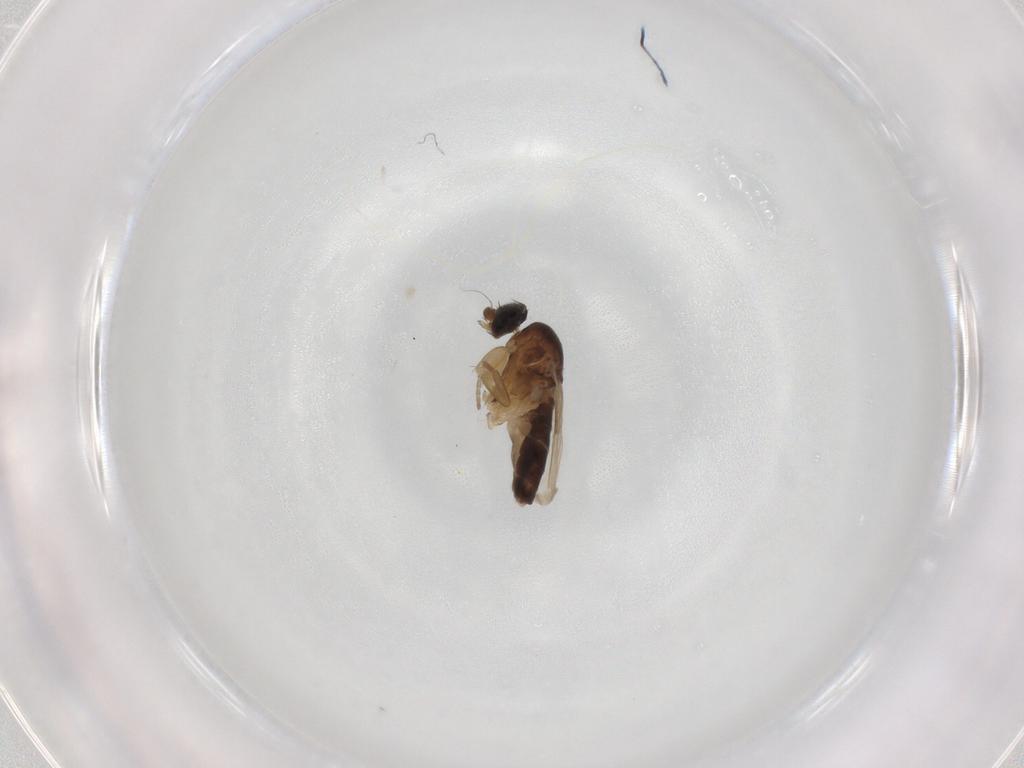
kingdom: Animalia
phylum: Arthropoda
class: Insecta
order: Diptera
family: Phoridae
